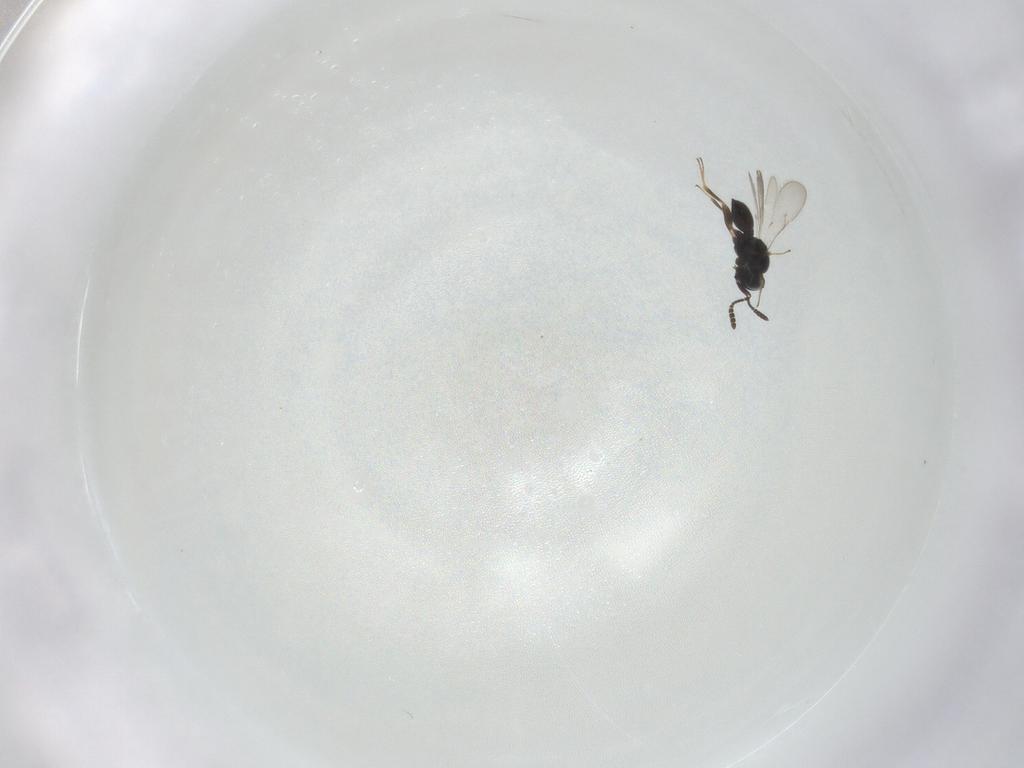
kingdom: Animalia
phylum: Arthropoda
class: Insecta
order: Hymenoptera
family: Scelionidae
